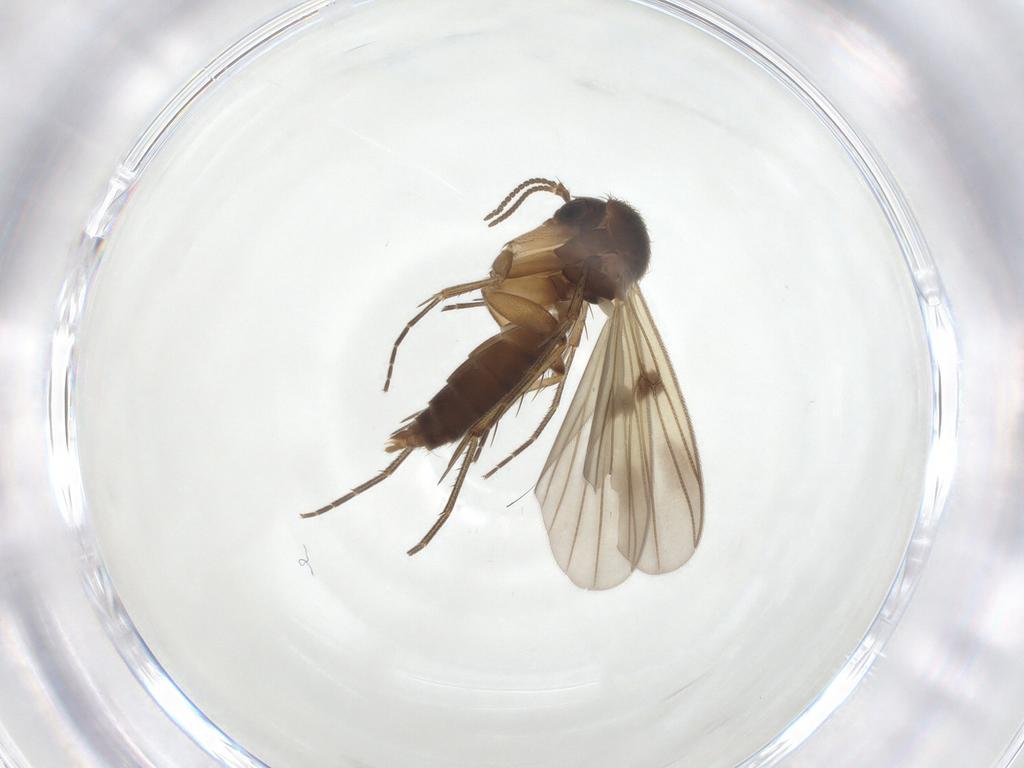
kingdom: Animalia
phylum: Arthropoda
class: Insecta
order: Diptera
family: Mycetophilidae
